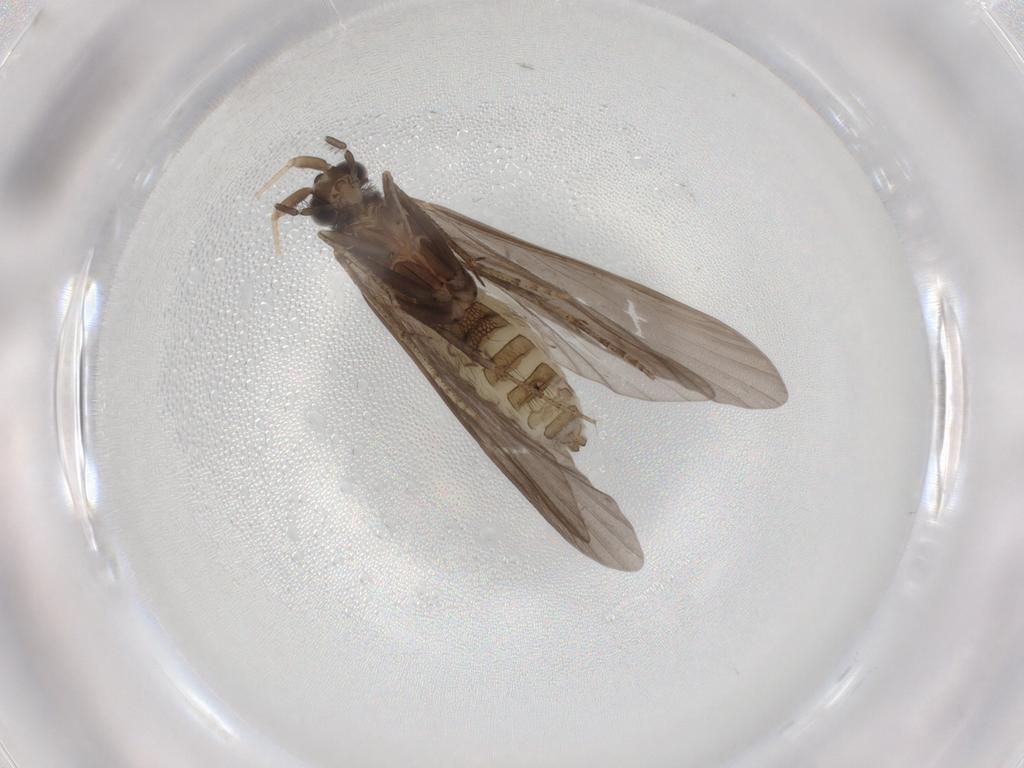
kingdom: Animalia
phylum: Arthropoda
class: Insecta
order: Trichoptera
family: Helicopsychidae
